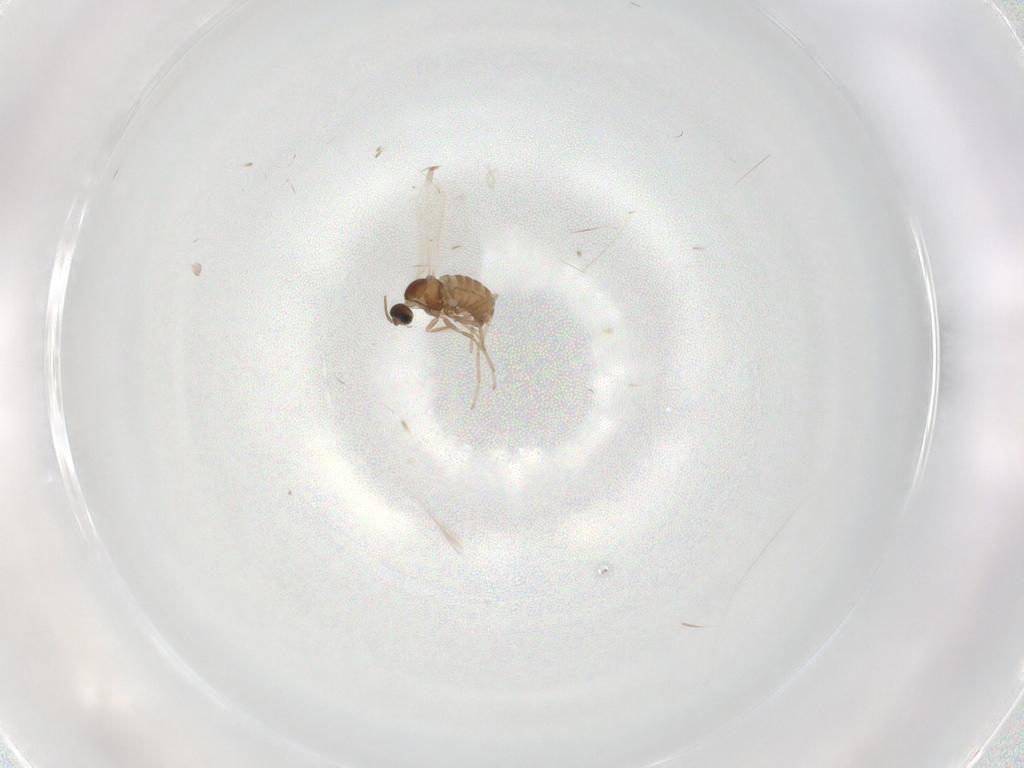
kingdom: Animalia
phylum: Arthropoda
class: Insecta
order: Diptera
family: Cecidomyiidae
